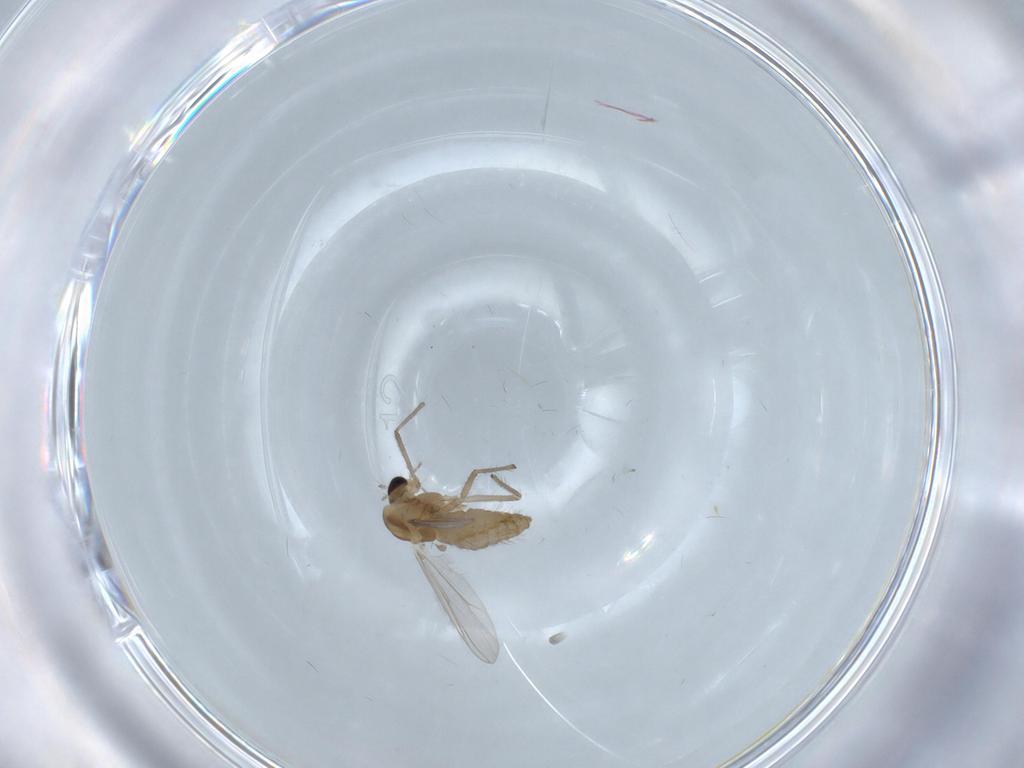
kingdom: Animalia
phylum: Arthropoda
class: Insecta
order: Diptera
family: Chironomidae
